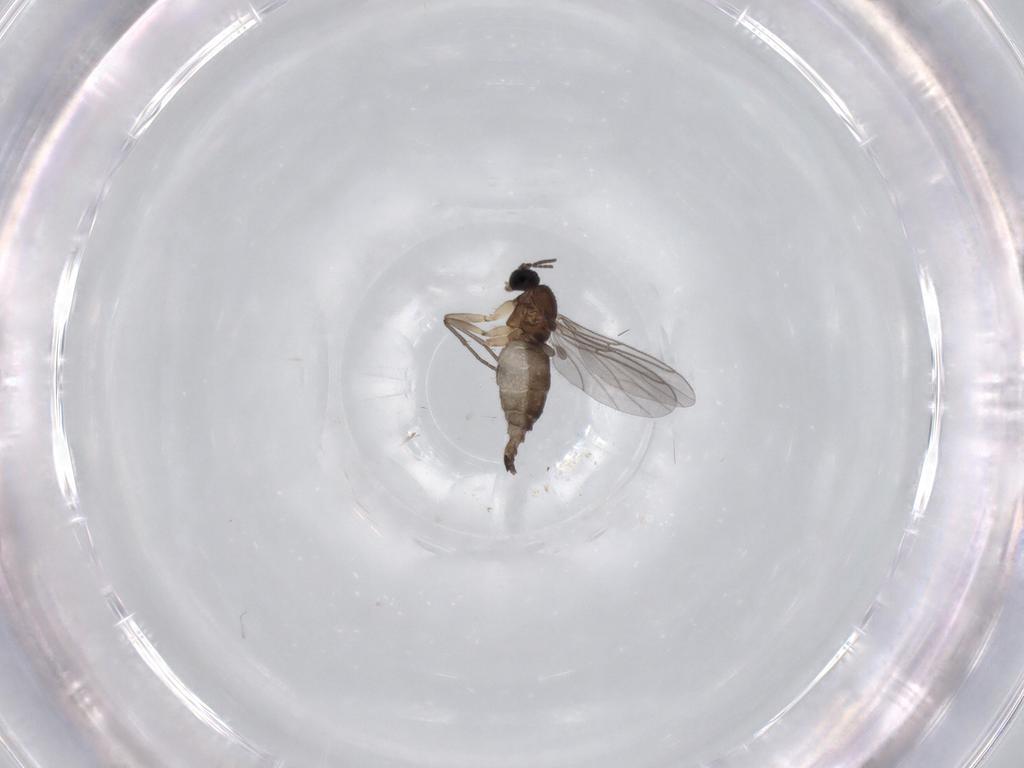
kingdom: Animalia
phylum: Arthropoda
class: Insecta
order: Diptera
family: Sciaridae
